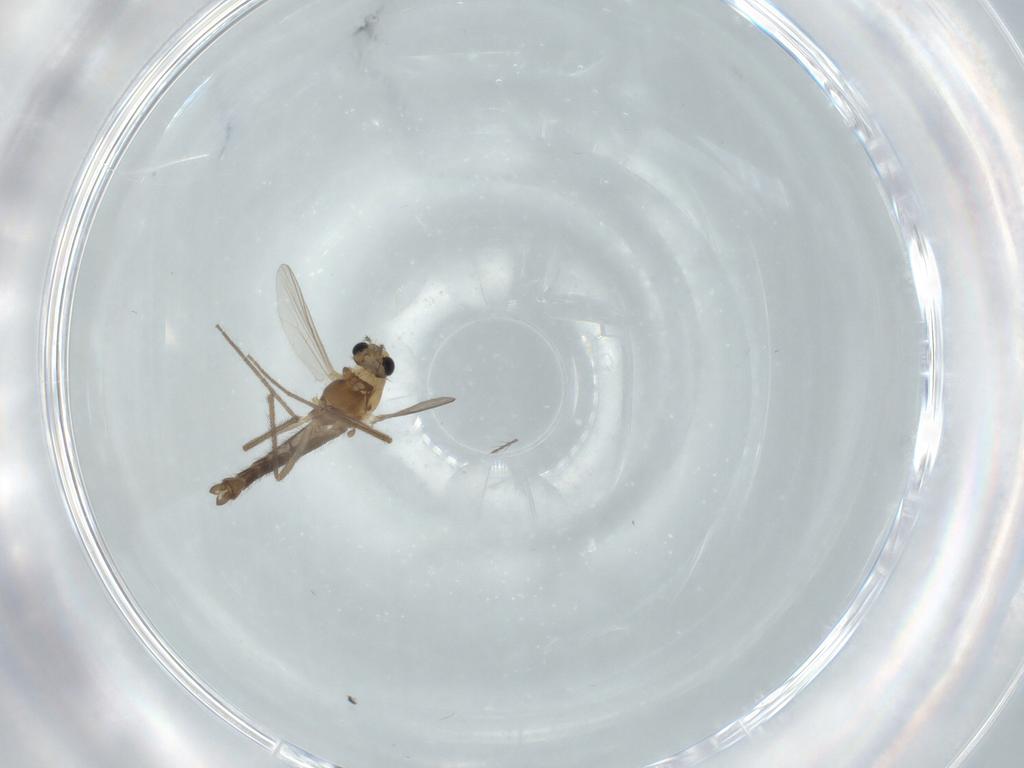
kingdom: Animalia
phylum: Arthropoda
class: Insecta
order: Diptera
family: Chironomidae
